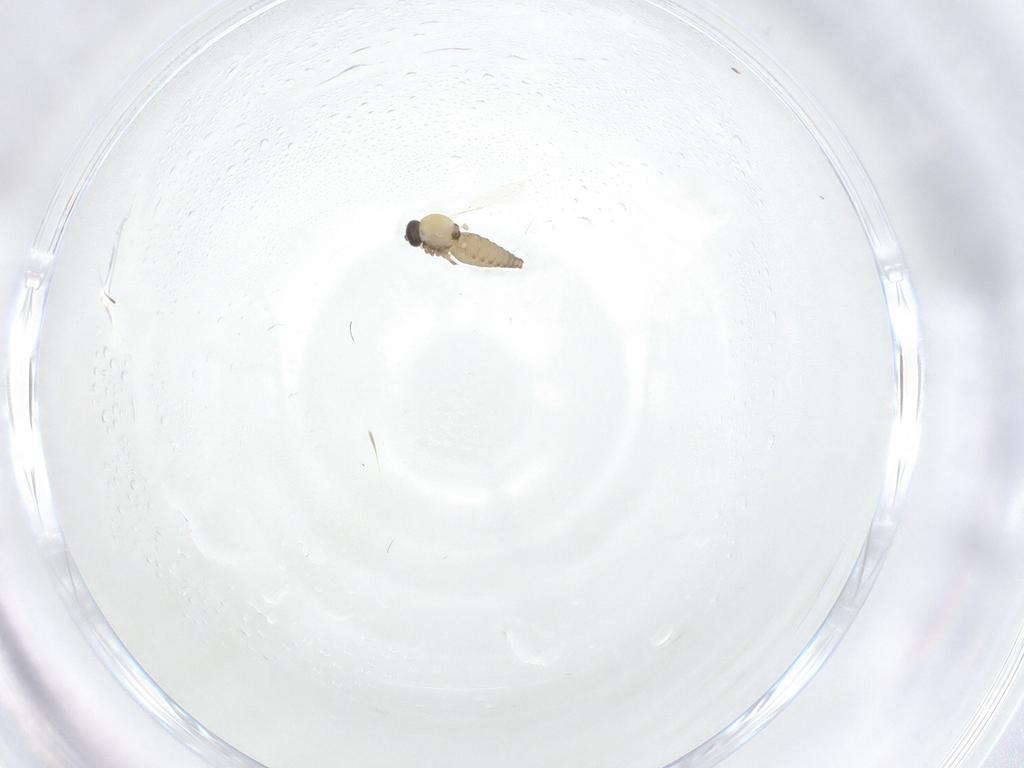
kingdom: Animalia
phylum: Arthropoda
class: Insecta
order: Diptera
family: Ceratopogonidae
